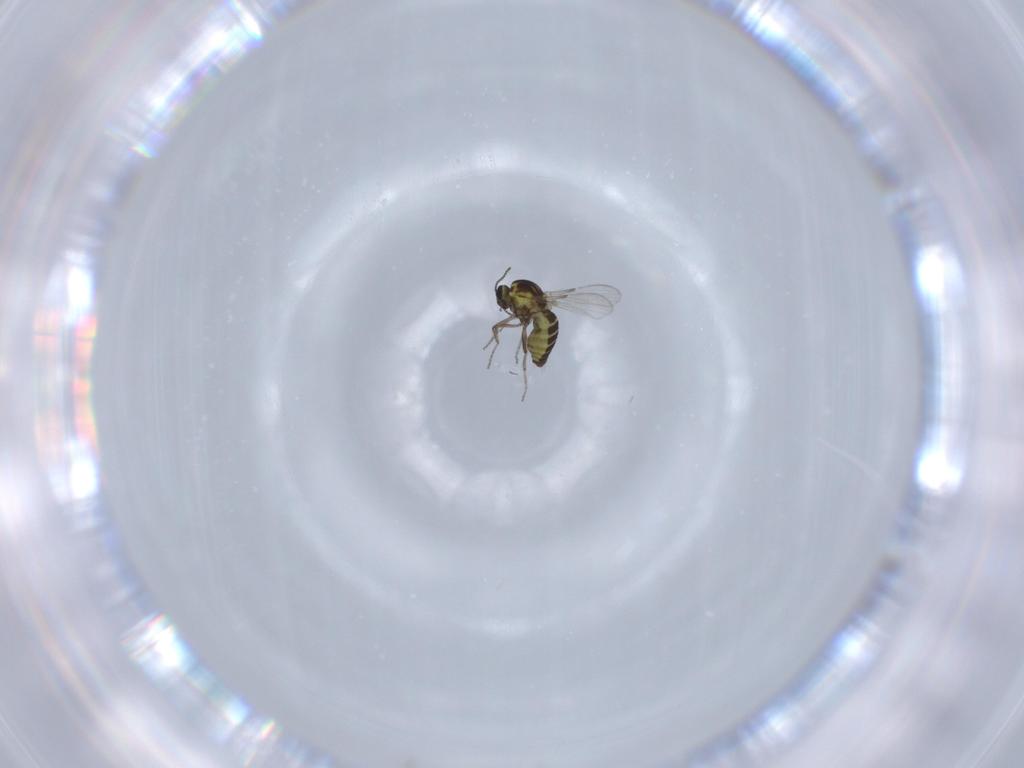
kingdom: Animalia
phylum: Arthropoda
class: Insecta
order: Diptera
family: Ceratopogonidae
